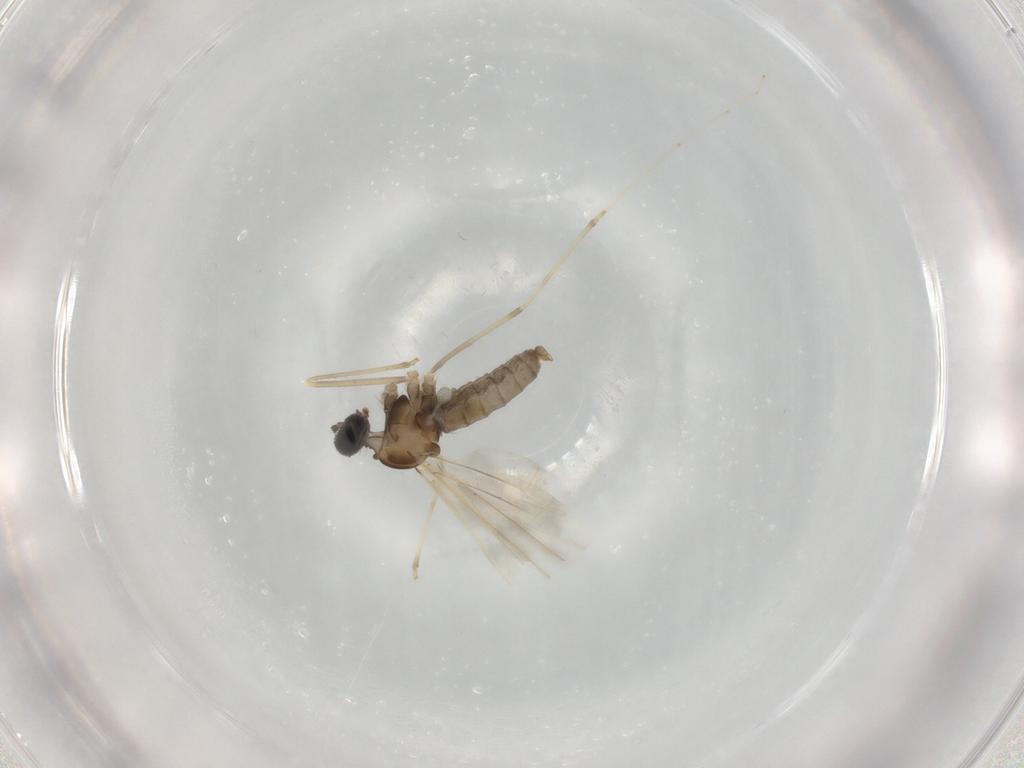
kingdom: Animalia
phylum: Arthropoda
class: Insecta
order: Diptera
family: Cecidomyiidae
